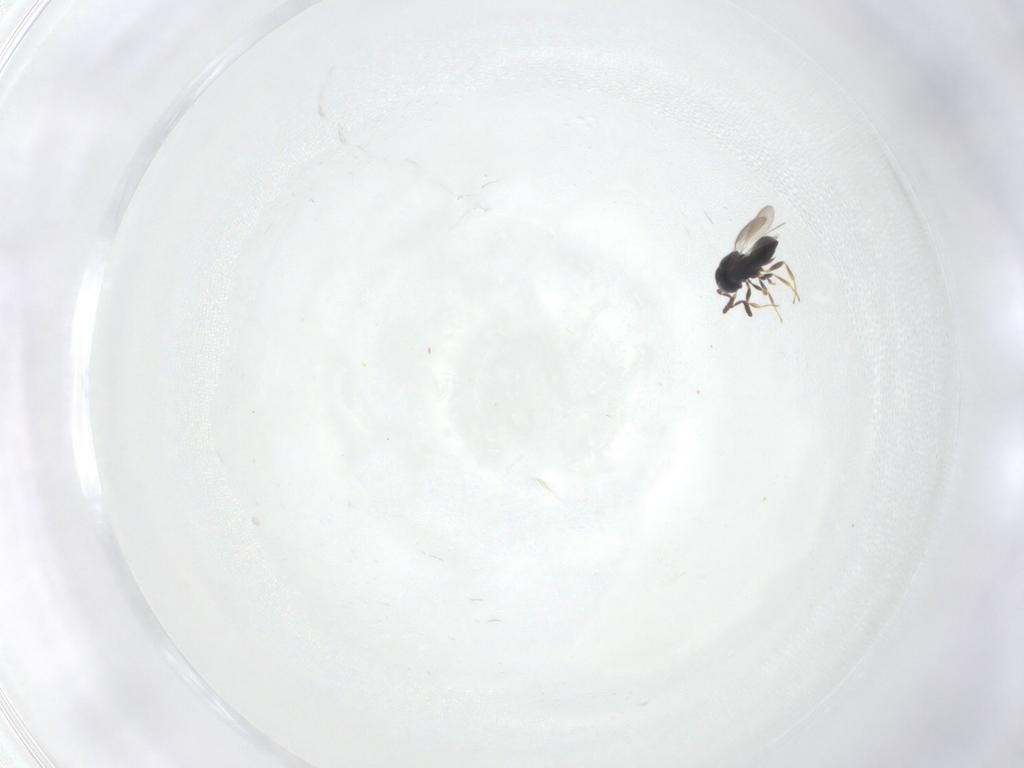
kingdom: Animalia
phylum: Arthropoda
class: Insecta
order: Hymenoptera
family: Scelionidae
